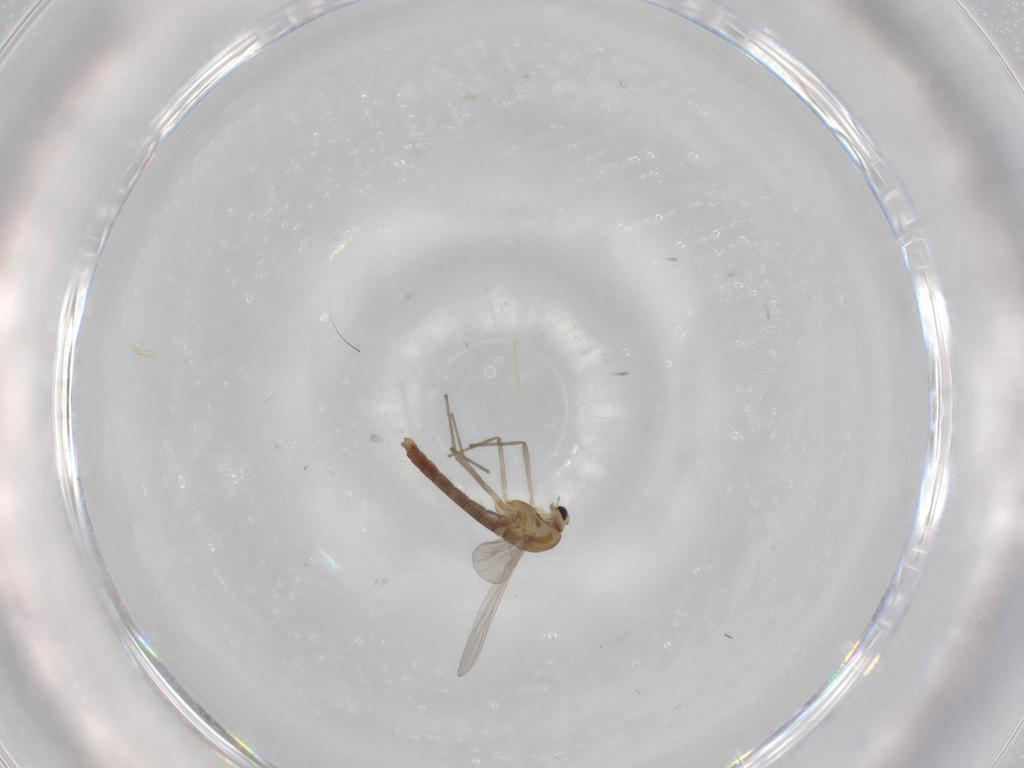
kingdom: Animalia
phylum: Arthropoda
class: Insecta
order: Diptera
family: Chironomidae
